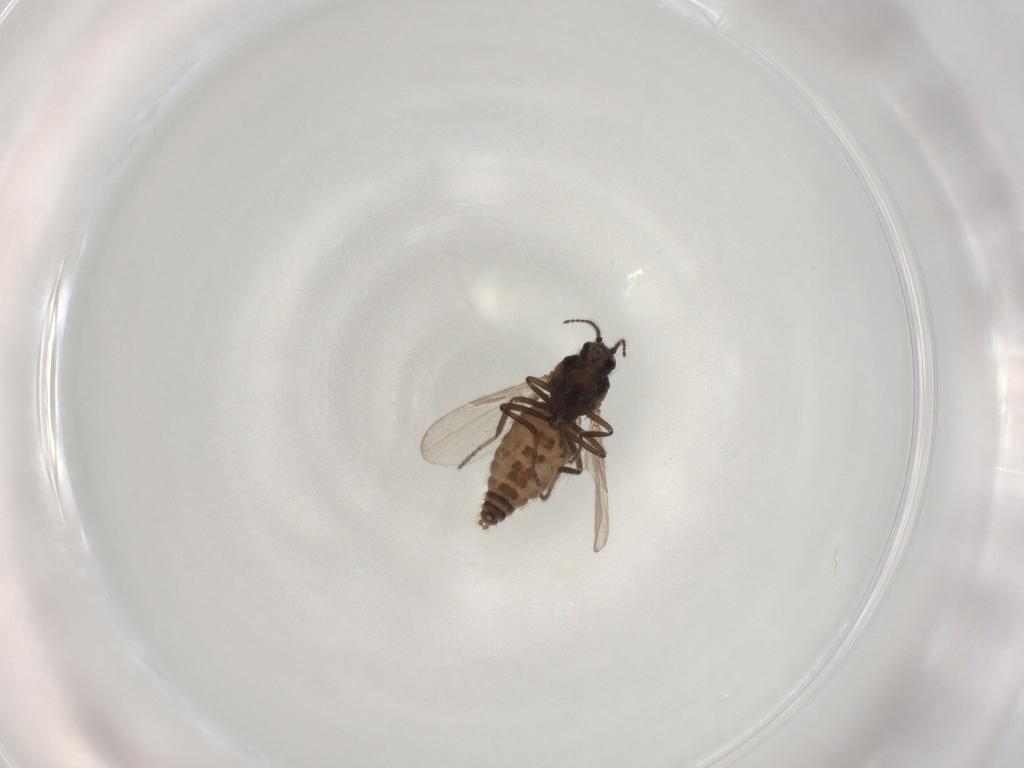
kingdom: Animalia
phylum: Arthropoda
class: Insecta
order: Diptera
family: Ceratopogonidae
